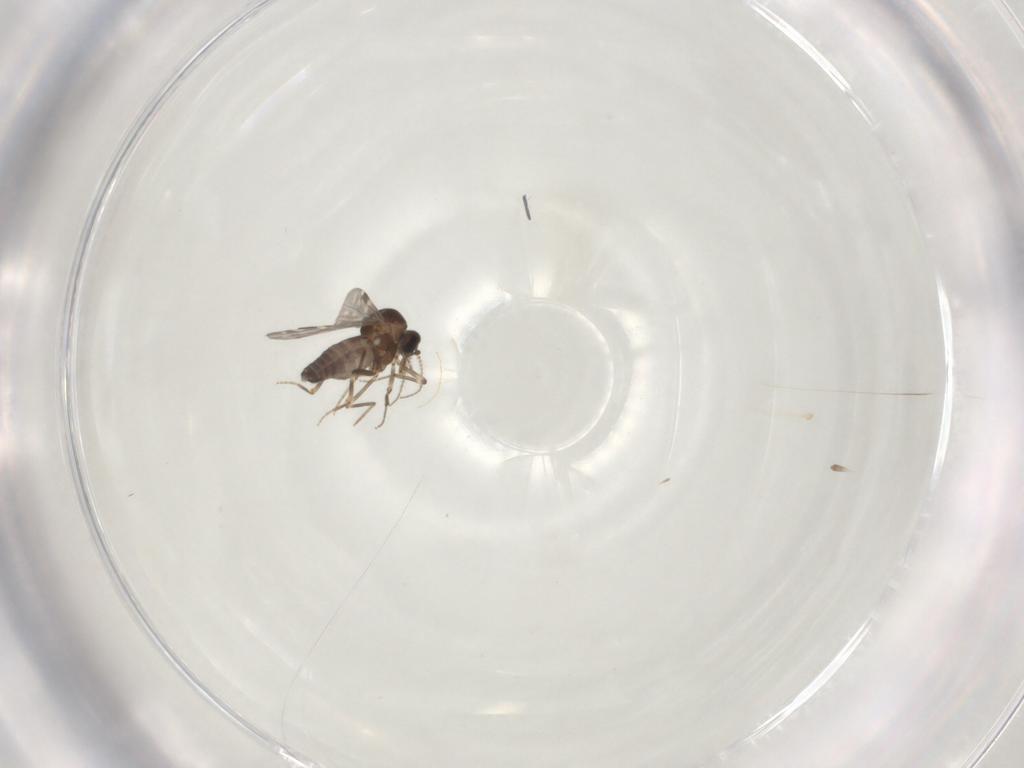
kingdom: Animalia
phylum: Arthropoda
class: Insecta
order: Diptera
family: Ceratopogonidae
